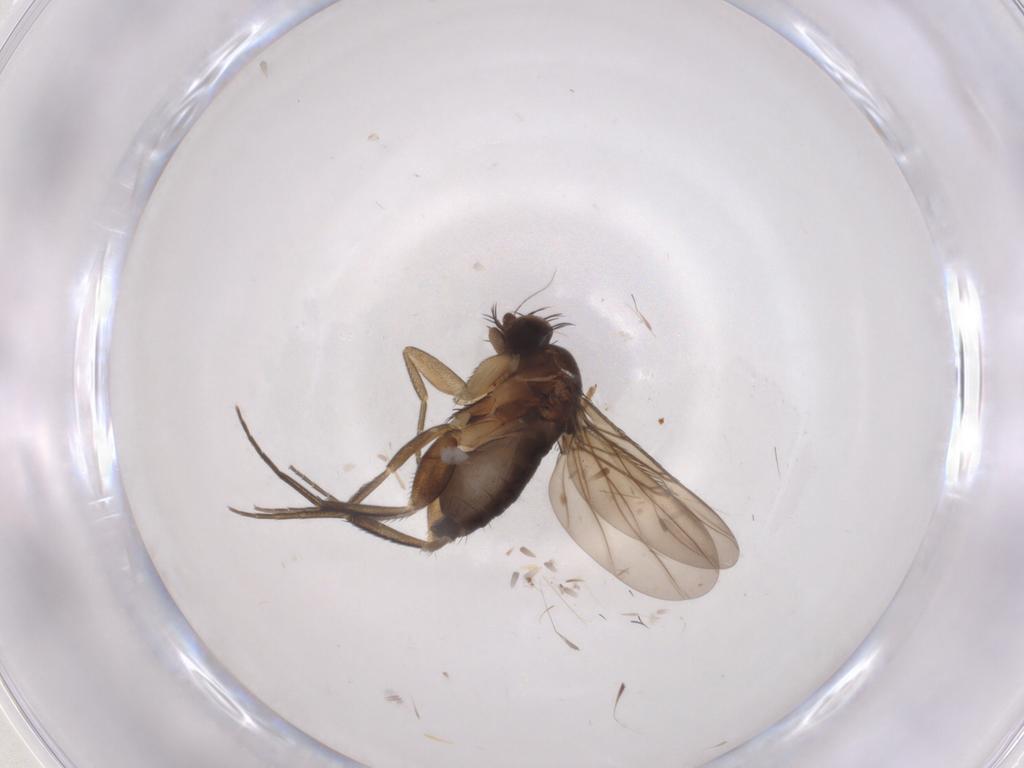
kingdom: Animalia
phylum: Arthropoda
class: Insecta
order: Diptera
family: Phoridae
